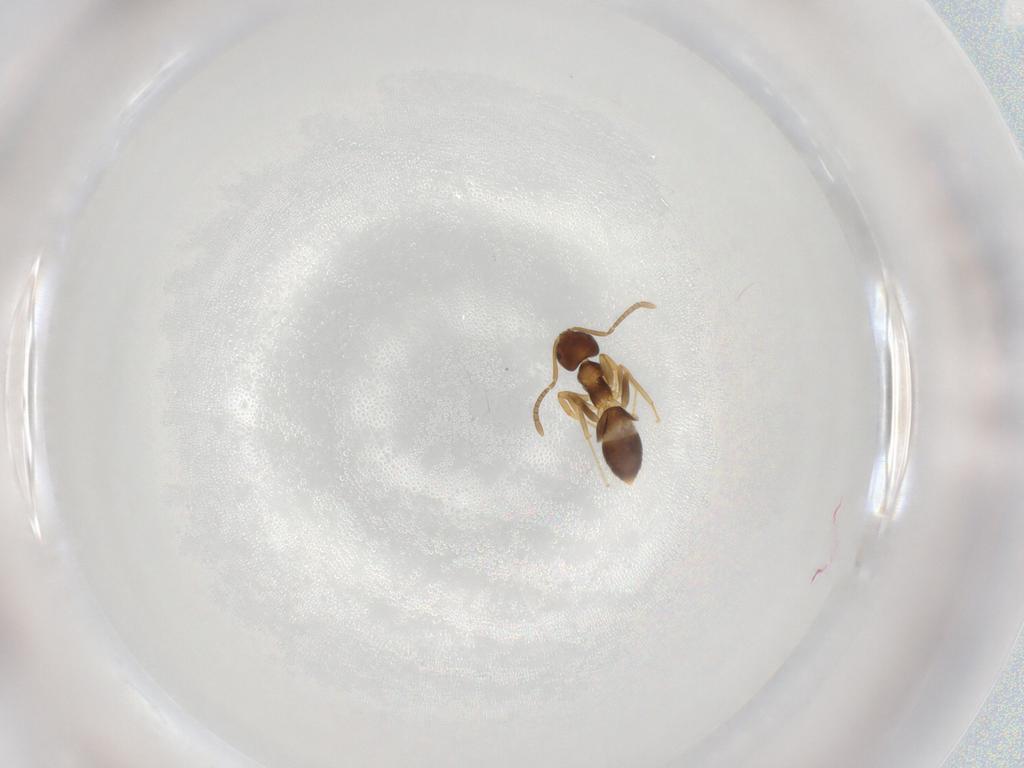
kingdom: Animalia
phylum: Arthropoda
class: Insecta
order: Hymenoptera
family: Formicidae
